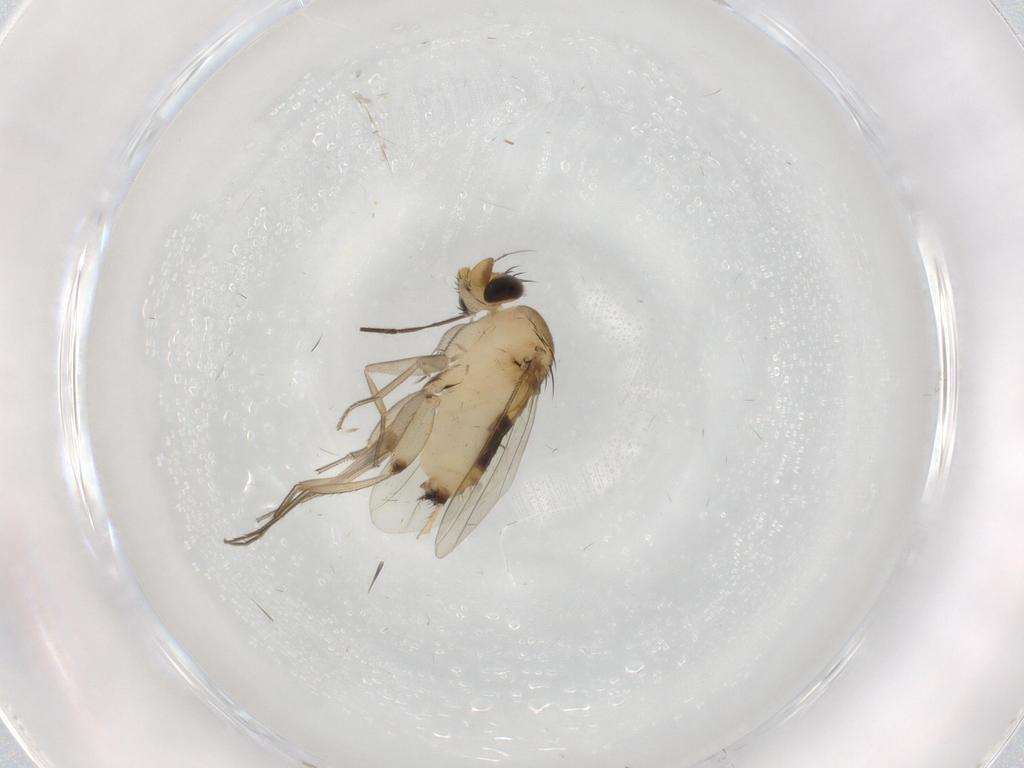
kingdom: Animalia
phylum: Arthropoda
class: Insecta
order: Diptera
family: Phoridae
